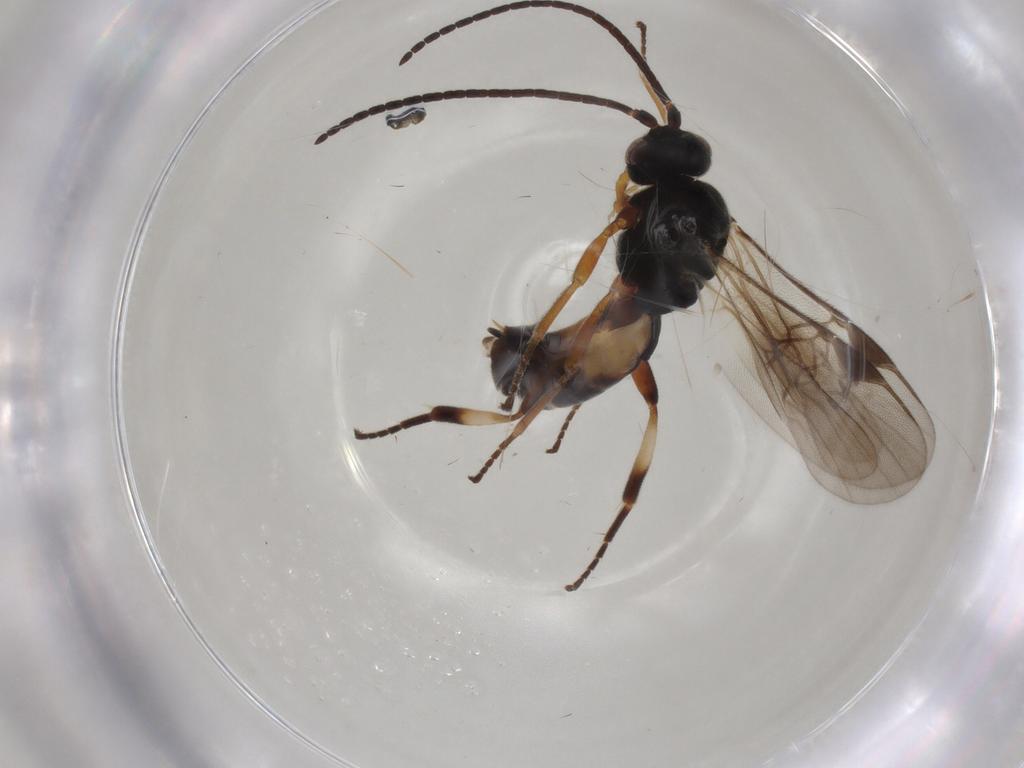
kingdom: Animalia
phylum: Arthropoda
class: Insecta
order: Hymenoptera
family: Braconidae
